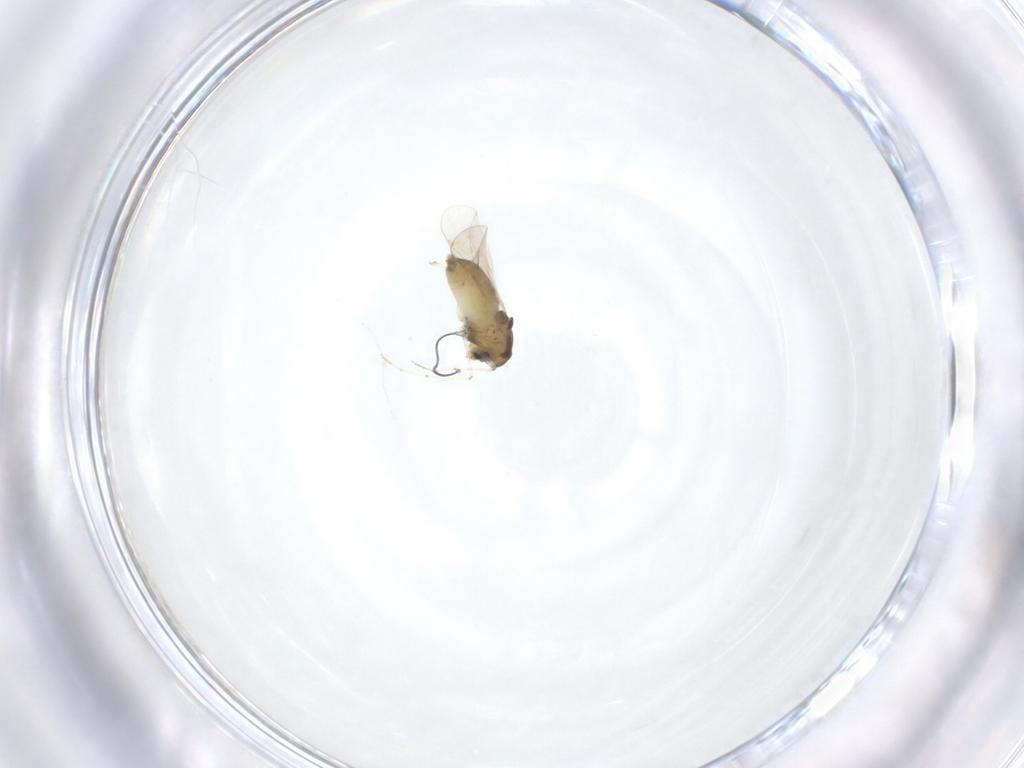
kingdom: Animalia
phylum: Arthropoda
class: Insecta
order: Diptera
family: Chironomidae
